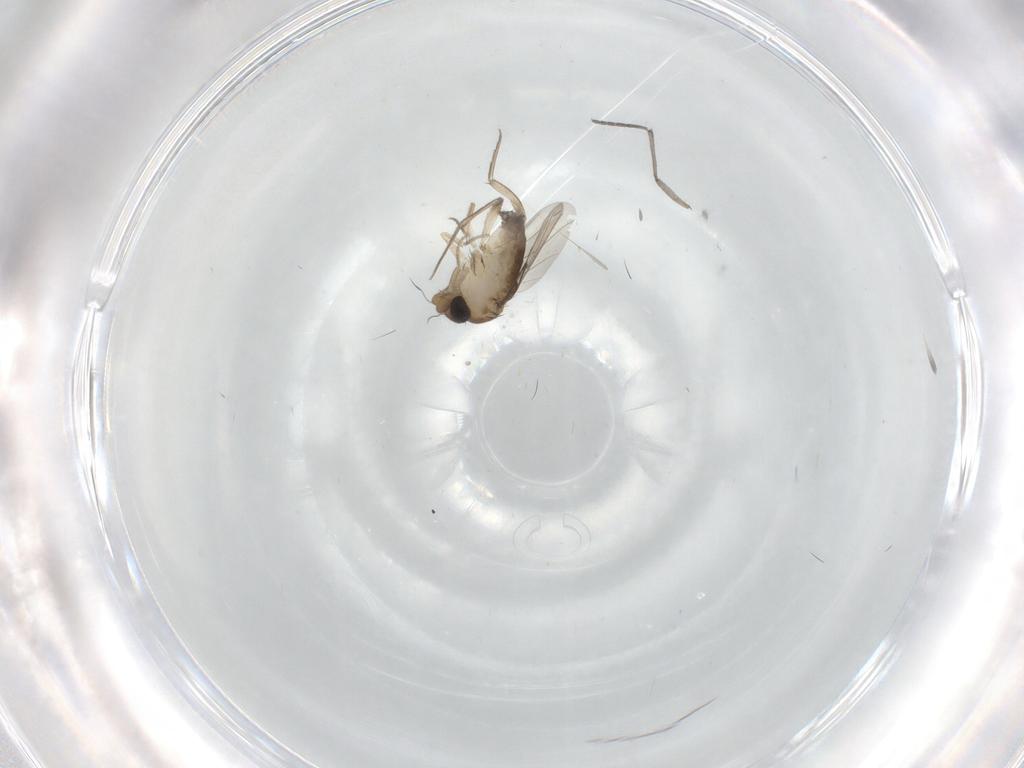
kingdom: Animalia
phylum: Arthropoda
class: Insecta
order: Diptera
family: Phoridae
